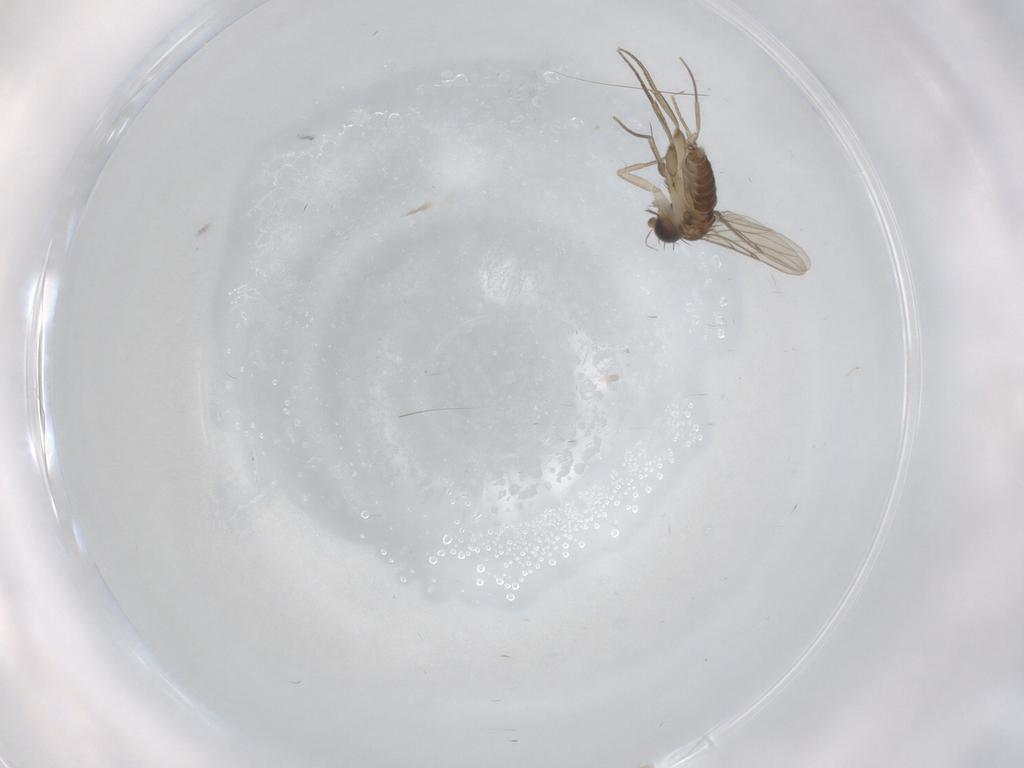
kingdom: Animalia
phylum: Arthropoda
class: Insecta
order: Diptera
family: Phoridae
